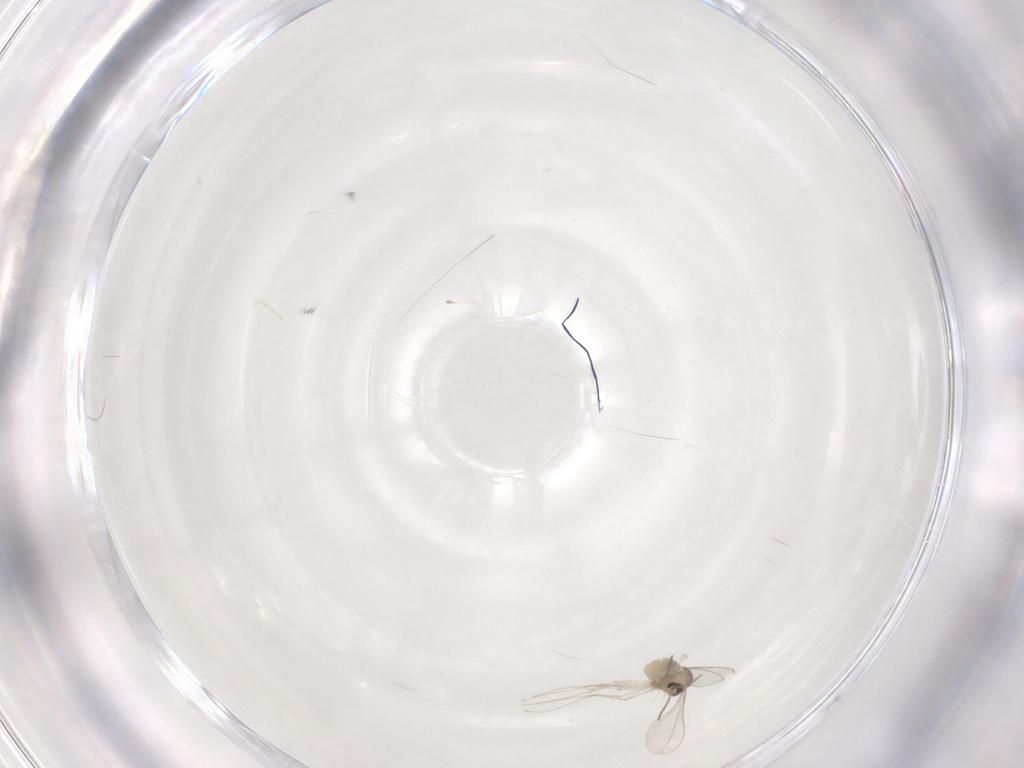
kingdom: Animalia
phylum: Arthropoda
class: Insecta
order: Diptera
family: Cecidomyiidae
